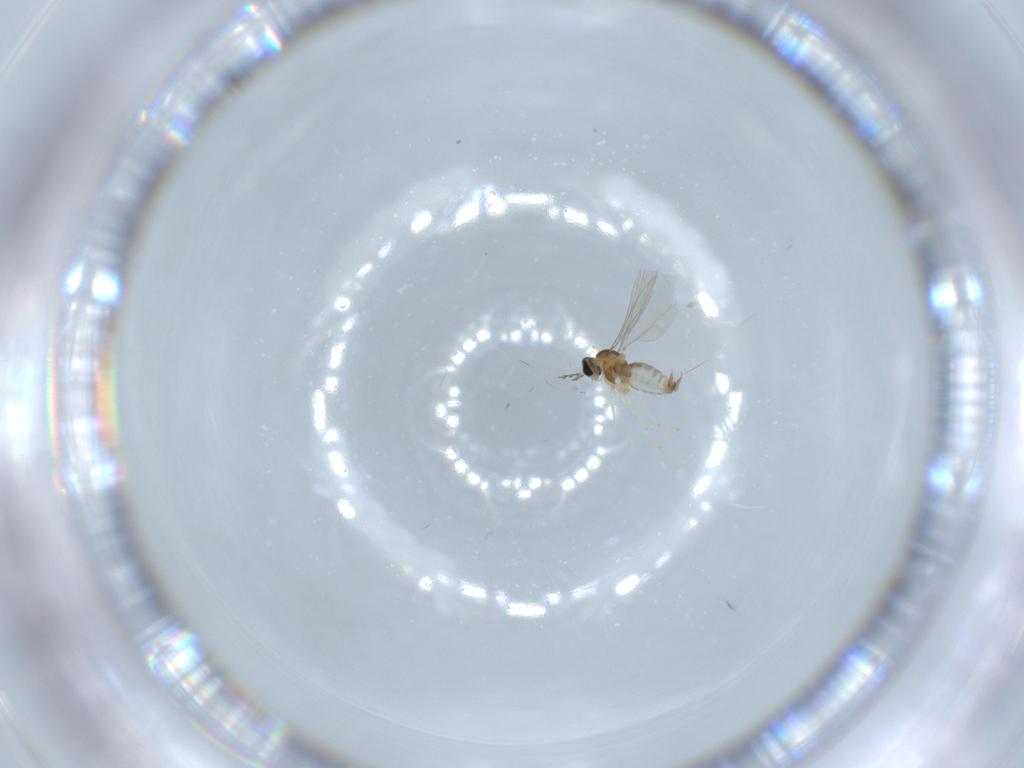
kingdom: Animalia
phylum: Arthropoda
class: Insecta
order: Diptera
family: Cecidomyiidae
